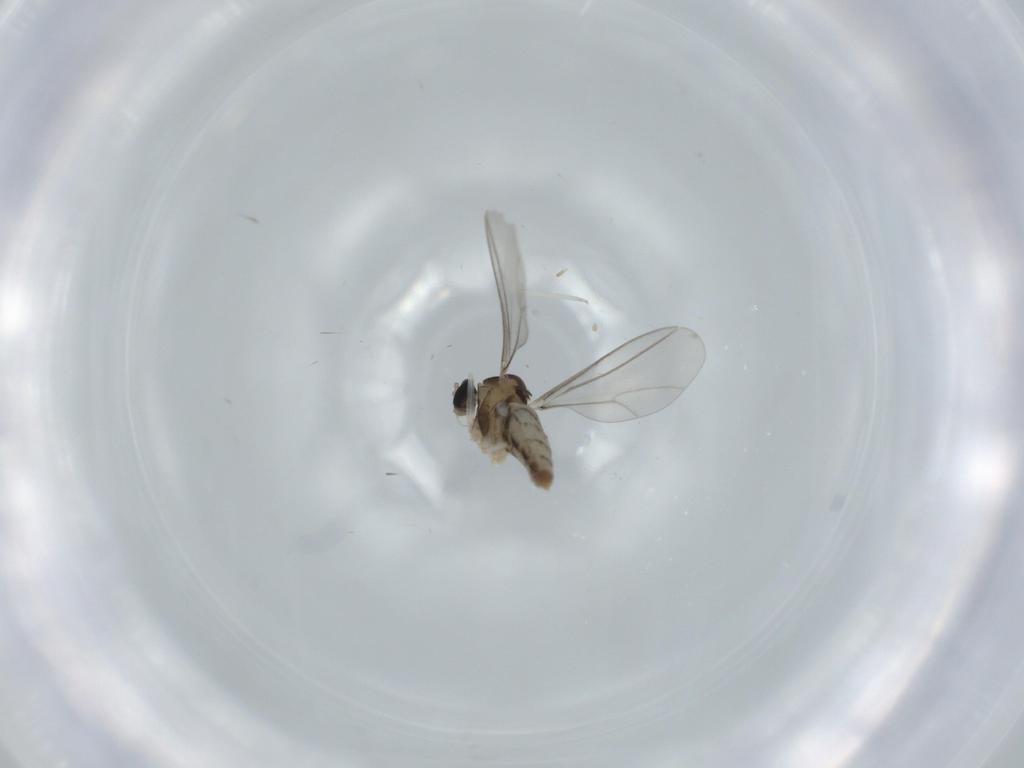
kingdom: Animalia
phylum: Arthropoda
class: Insecta
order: Diptera
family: Cecidomyiidae
